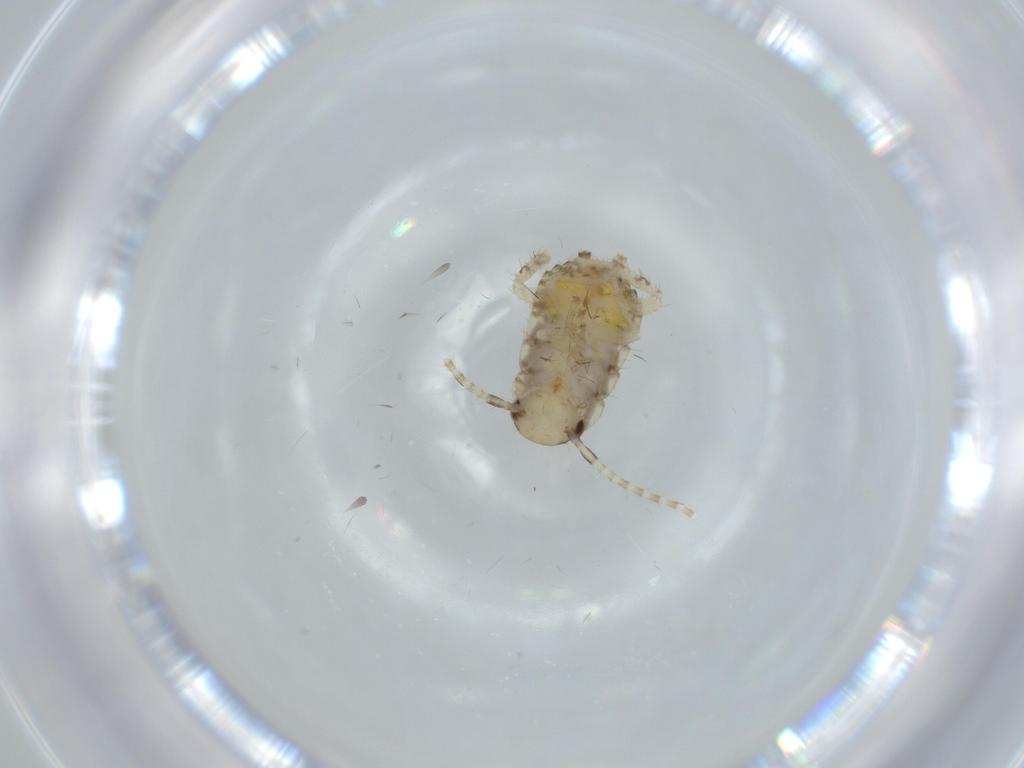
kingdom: Animalia
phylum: Arthropoda
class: Insecta
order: Blattodea
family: Ectobiidae
